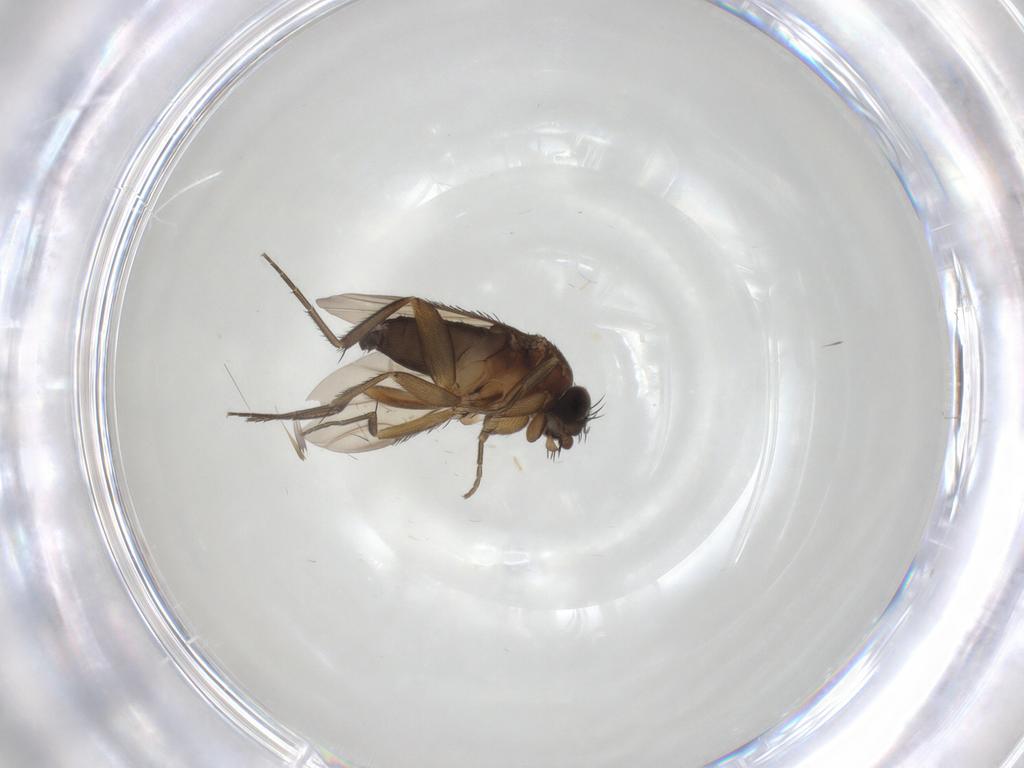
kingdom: Animalia
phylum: Arthropoda
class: Insecta
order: Diptera
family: Phoridae
